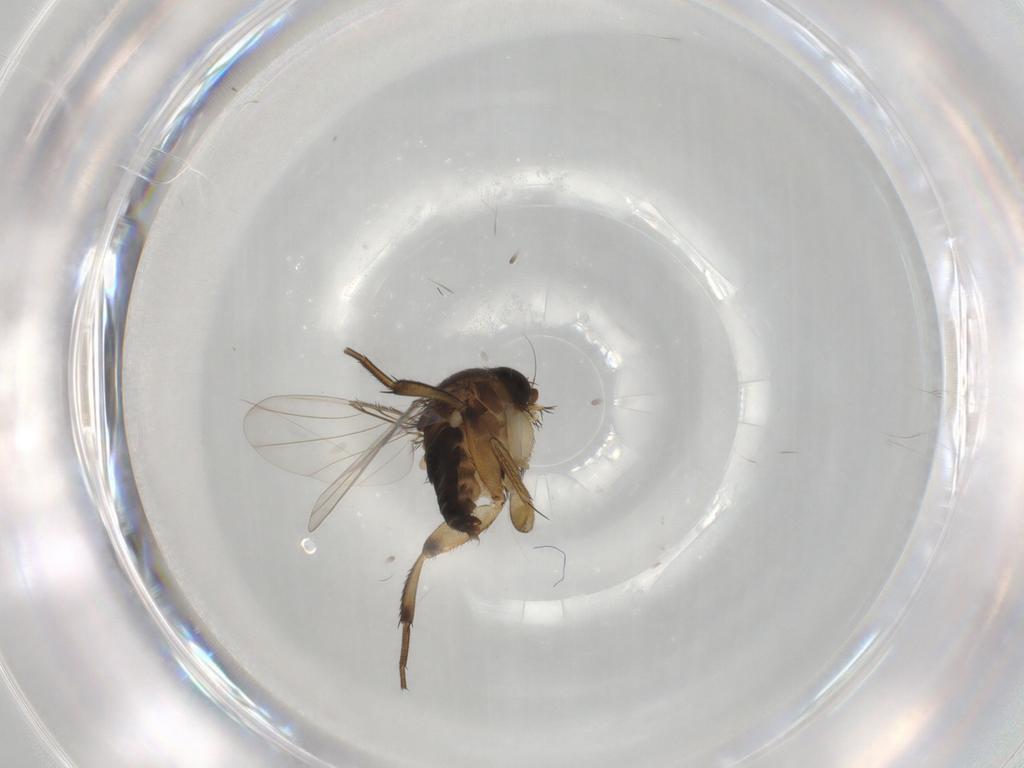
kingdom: Animalia
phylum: Arthropoda
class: Insecta
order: Diptera
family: Phoridae
